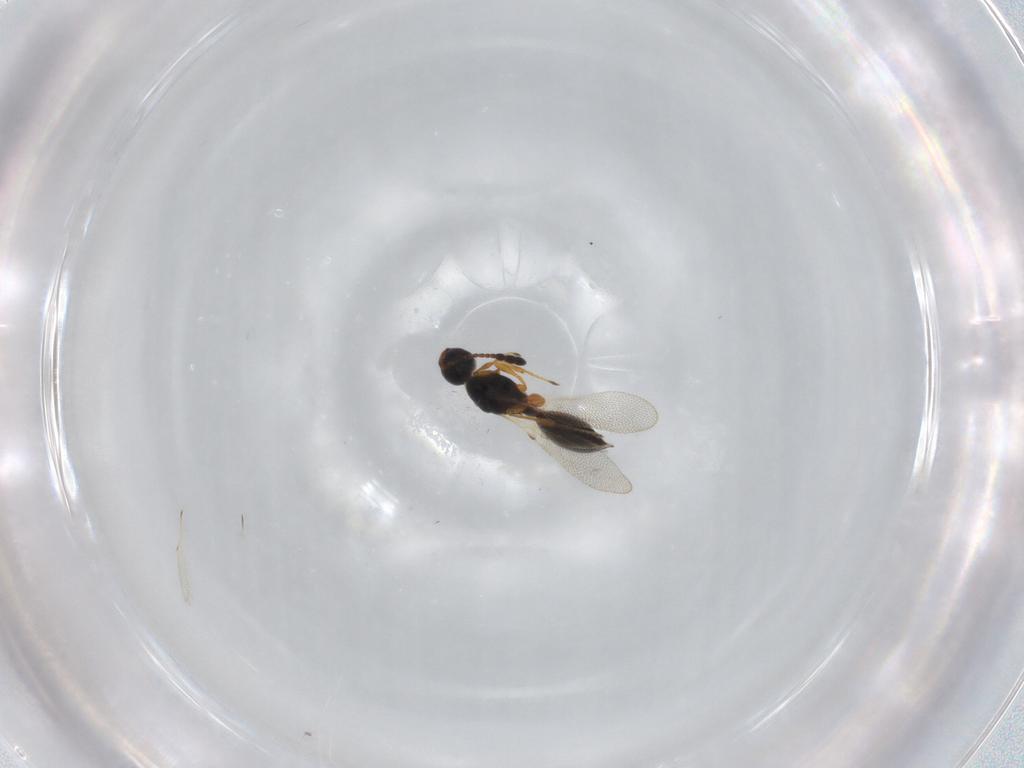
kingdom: Animalia
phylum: Arthropoda
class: Insecta
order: Hymenoptera
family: Diapriidae
